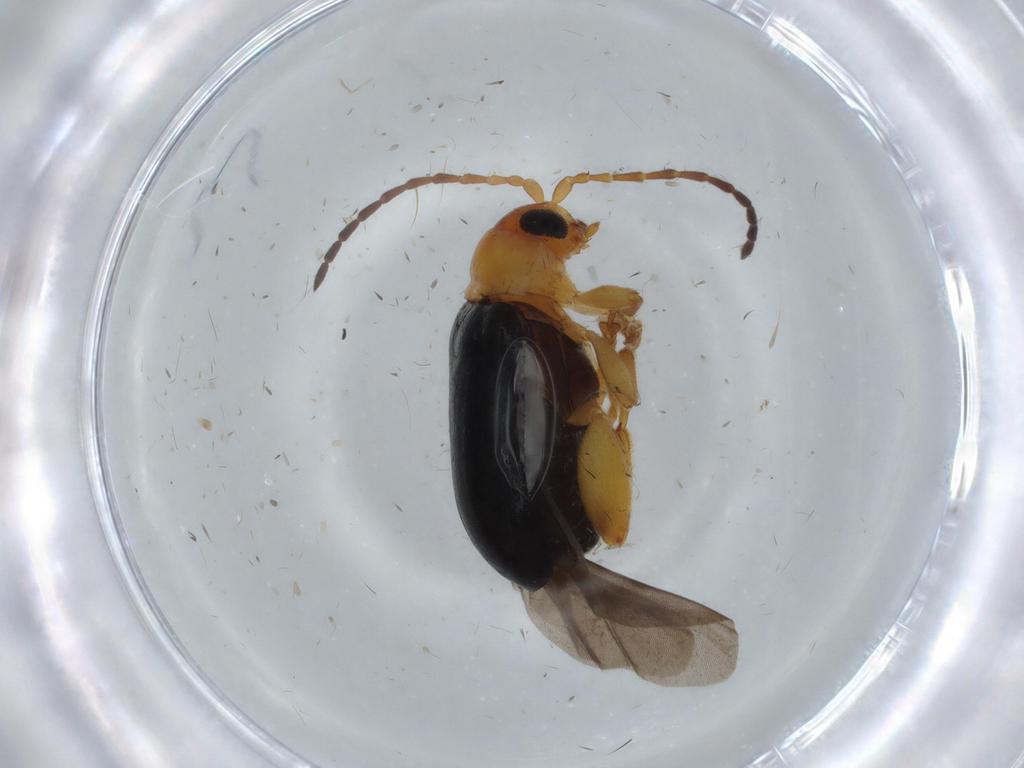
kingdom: Animalia
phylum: Arthropoda
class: Insecta
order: Coleoptera
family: Chrysomelidae
